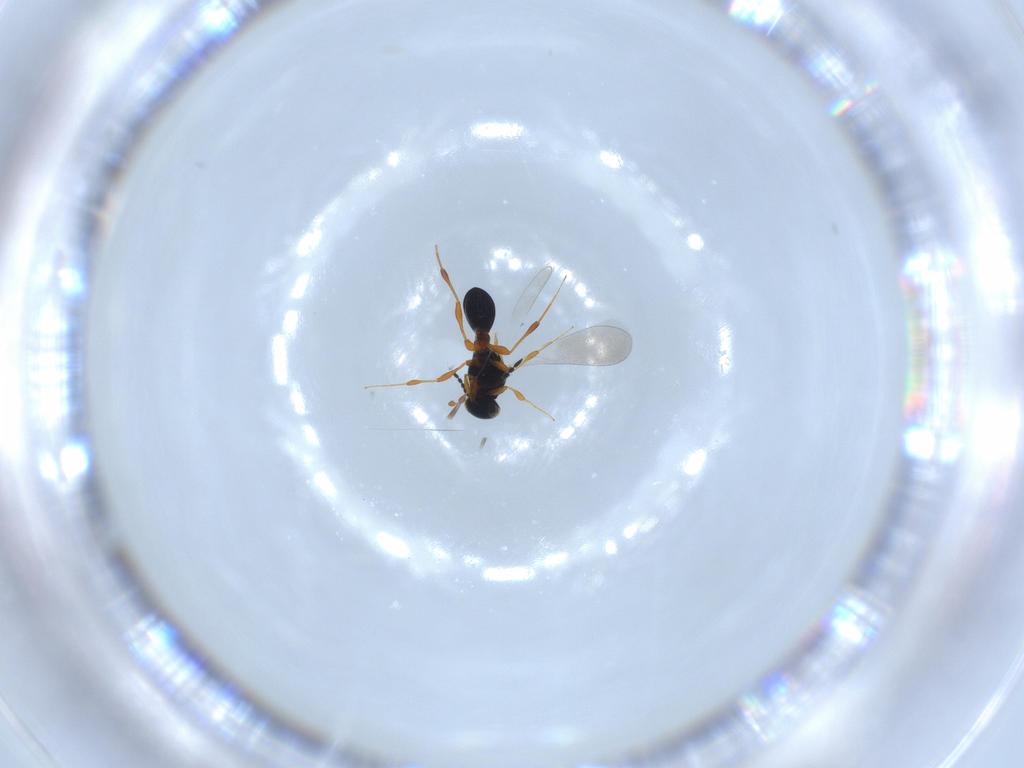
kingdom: Animalia
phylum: Arthropoda
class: Insecta
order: Hymenoptera
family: Platygastridae
